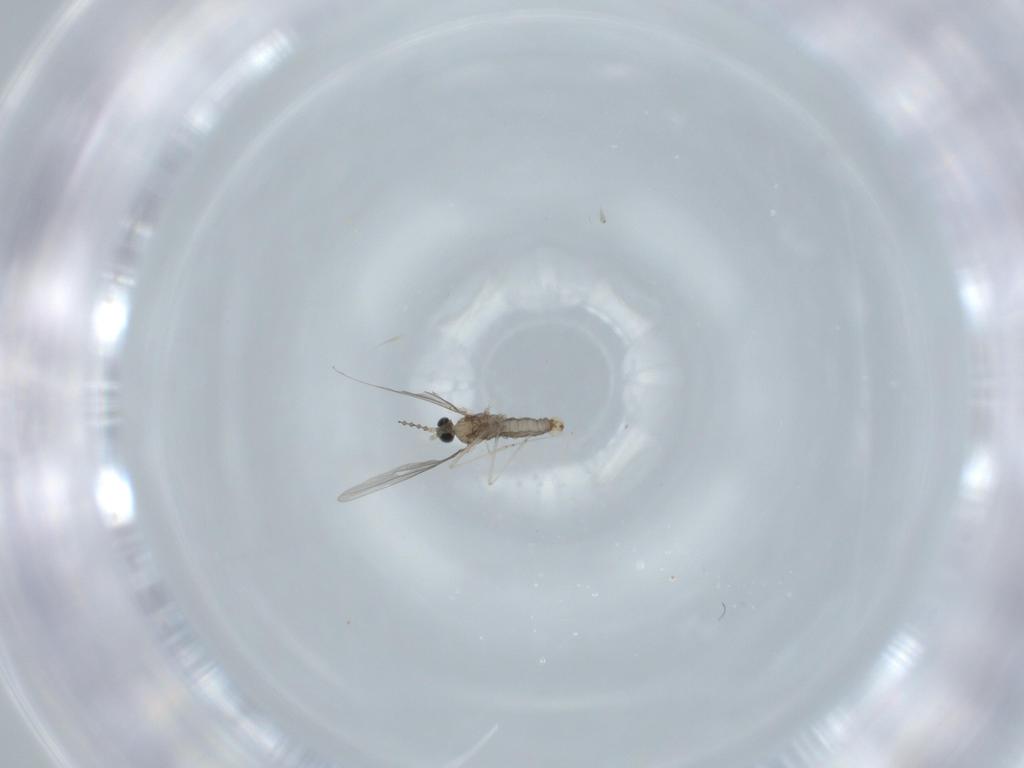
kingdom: Animalia
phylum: Arthropoda
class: Insecta
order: Diptera
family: Cecidomyiidae
